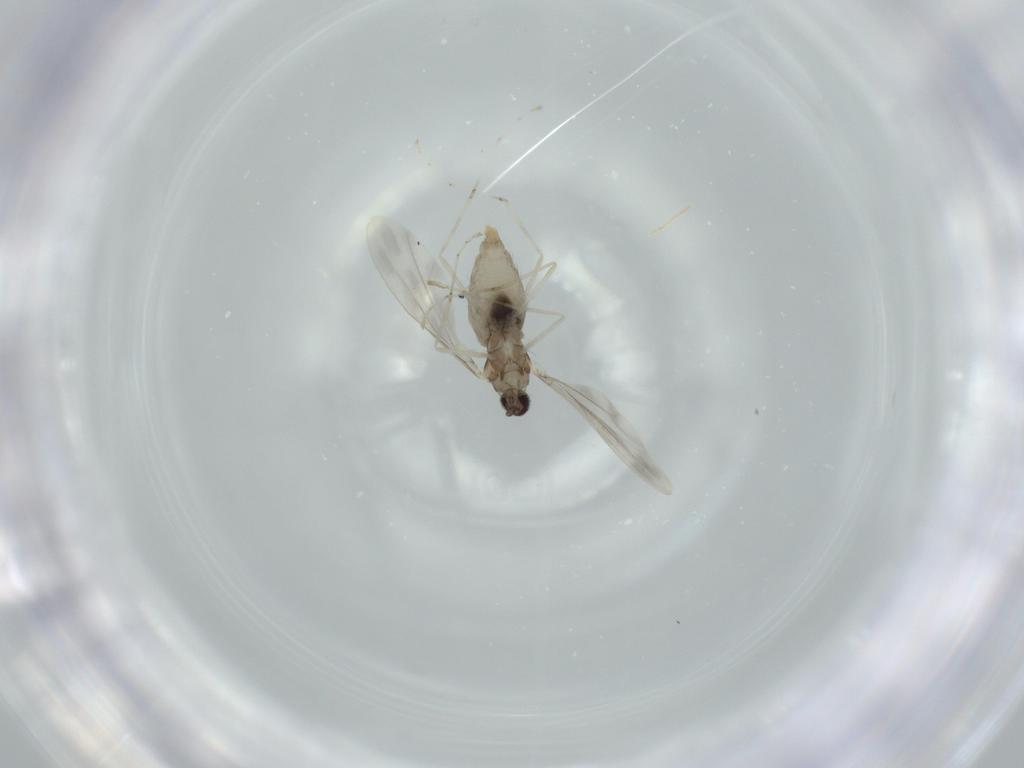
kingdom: Animalia
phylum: Arthropoda
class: Insecta
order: Diptera
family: Cecidomyiidae
